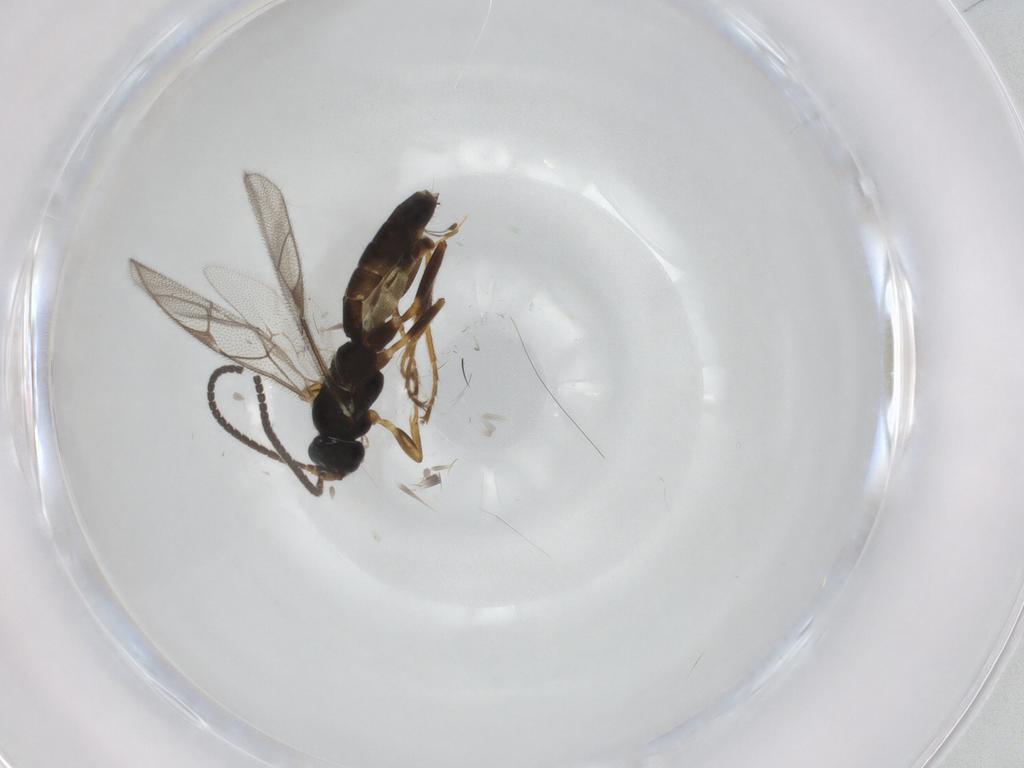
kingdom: Animalia
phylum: Arthropoda
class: Insecta
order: Hymenoptera
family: Ichneumonidae
